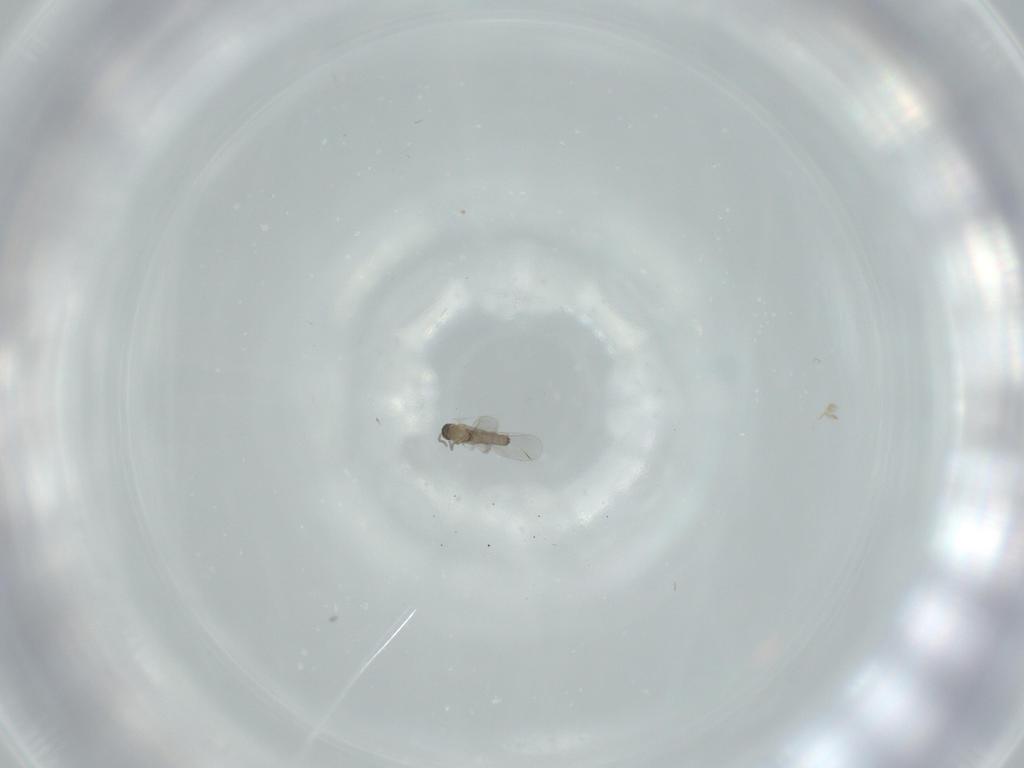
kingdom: Animalia
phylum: Arthropoda
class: Insecta
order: Diptera
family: Cecidomyiidae
